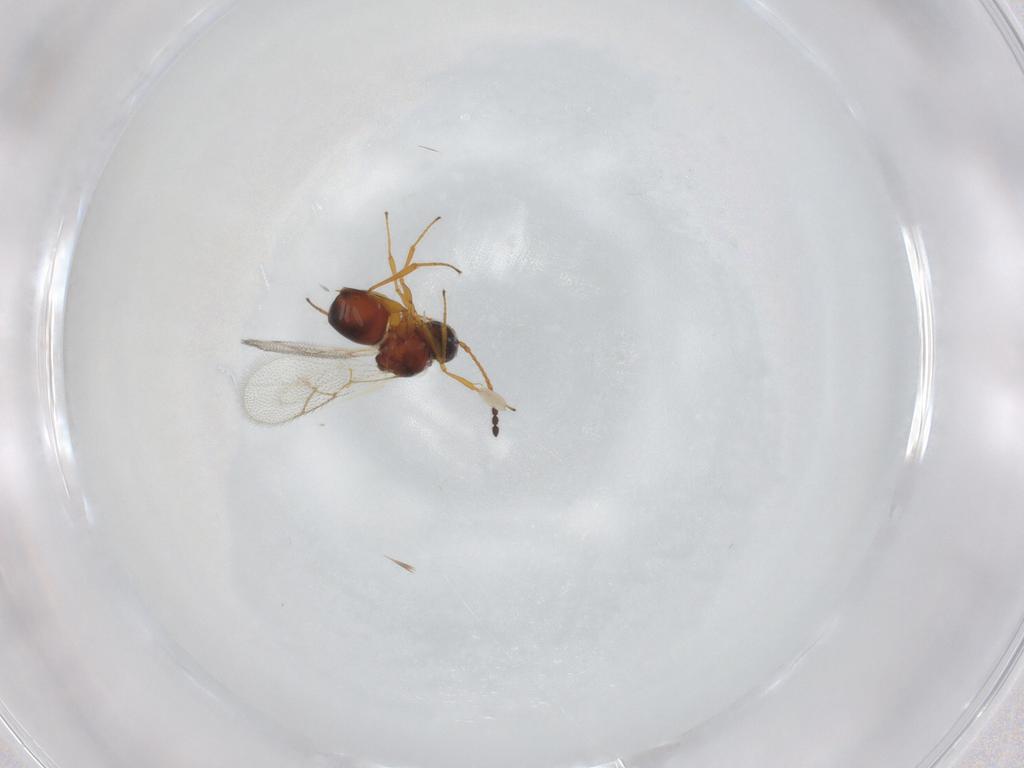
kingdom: Animalia
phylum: Arthropoda
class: Insecta
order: Hymenoptera
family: Figitidae
